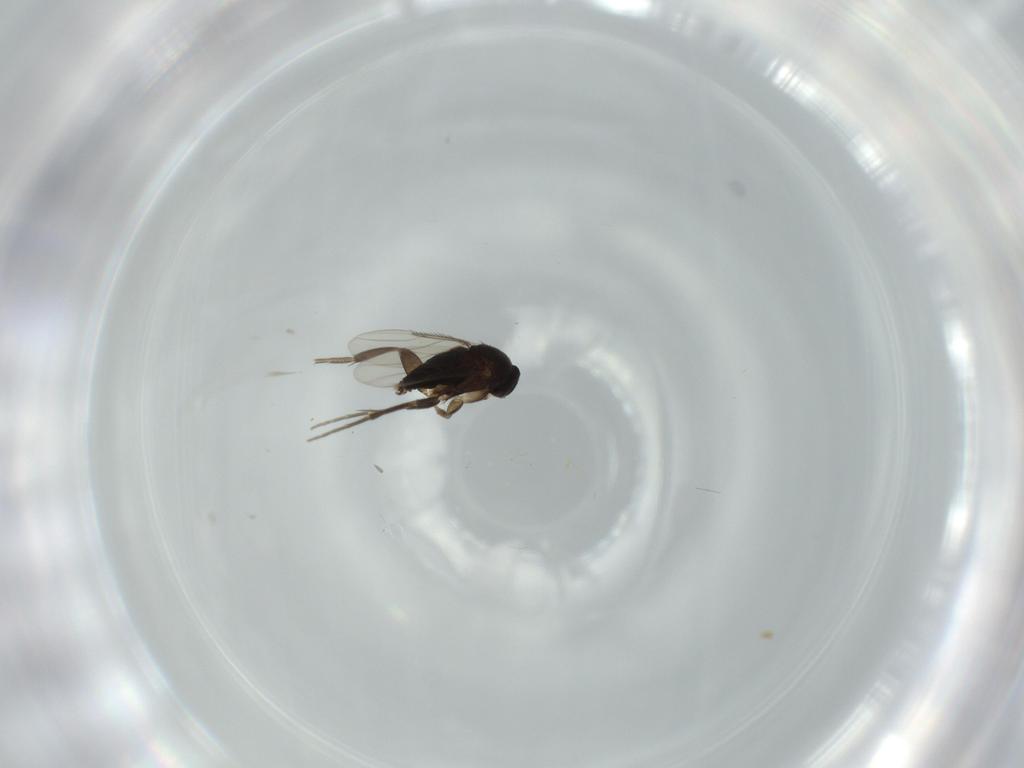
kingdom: Animalia
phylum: Arthropoda
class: Insecta
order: Diptera
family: Phoridae
